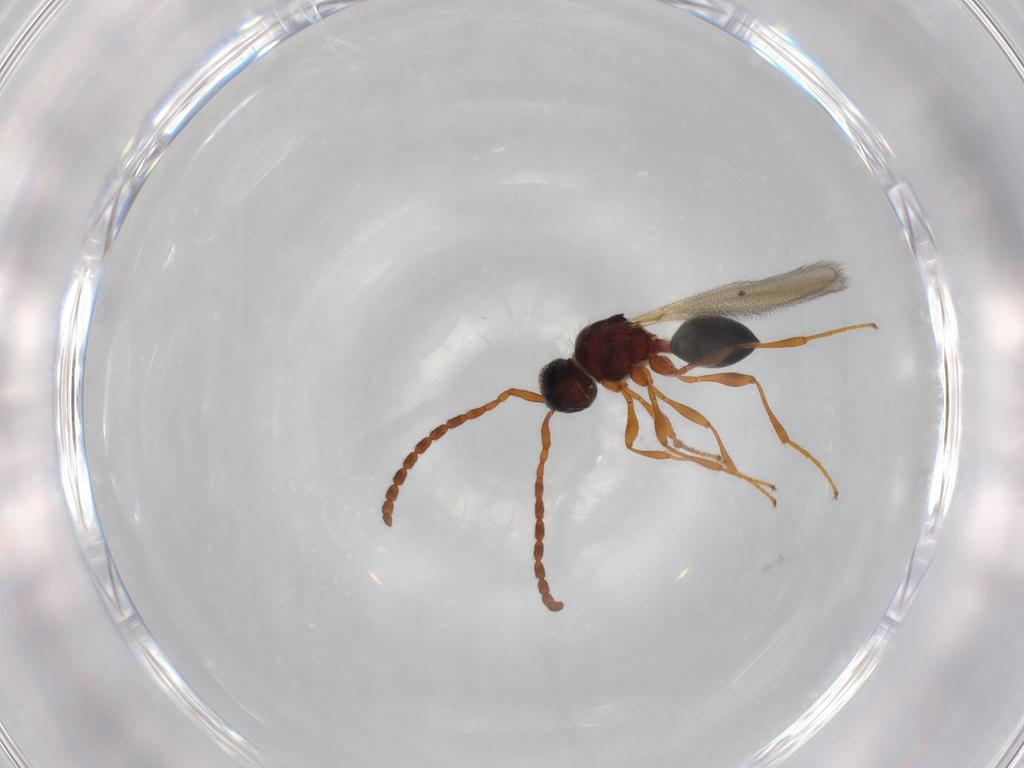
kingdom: Animalia
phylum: Arthropoda
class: Insecta
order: Hymenoptera
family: Diapriidae
